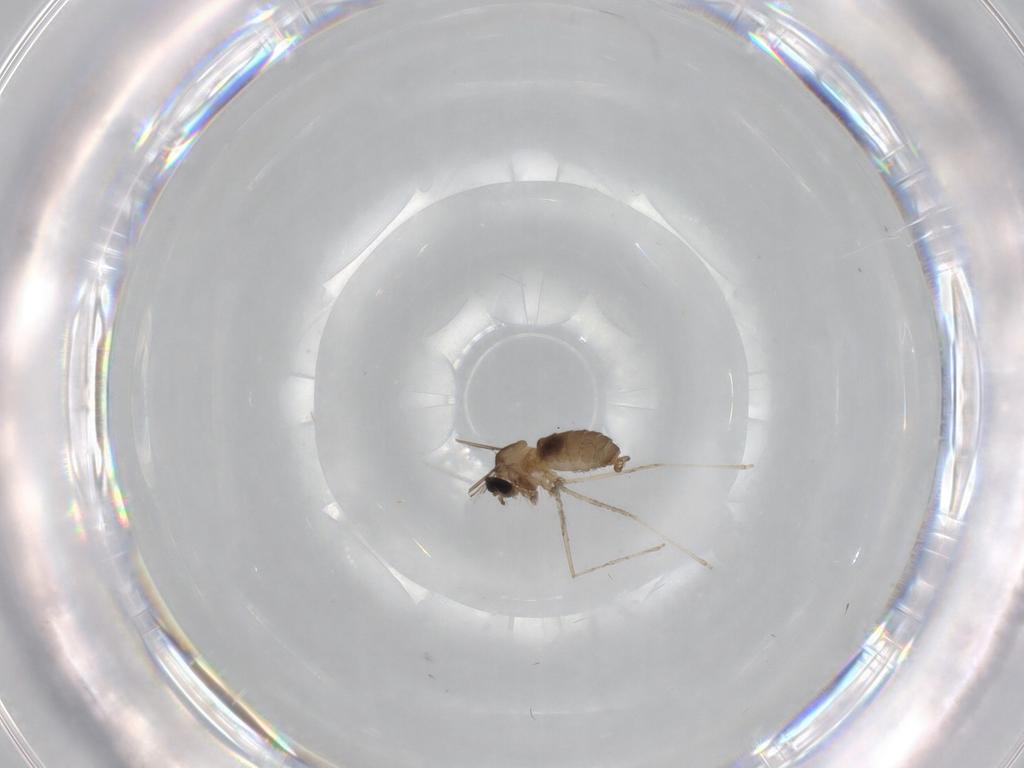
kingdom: Animalia
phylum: Arthropoda
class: Insecta
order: Diptera
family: Cecidomyiidae
